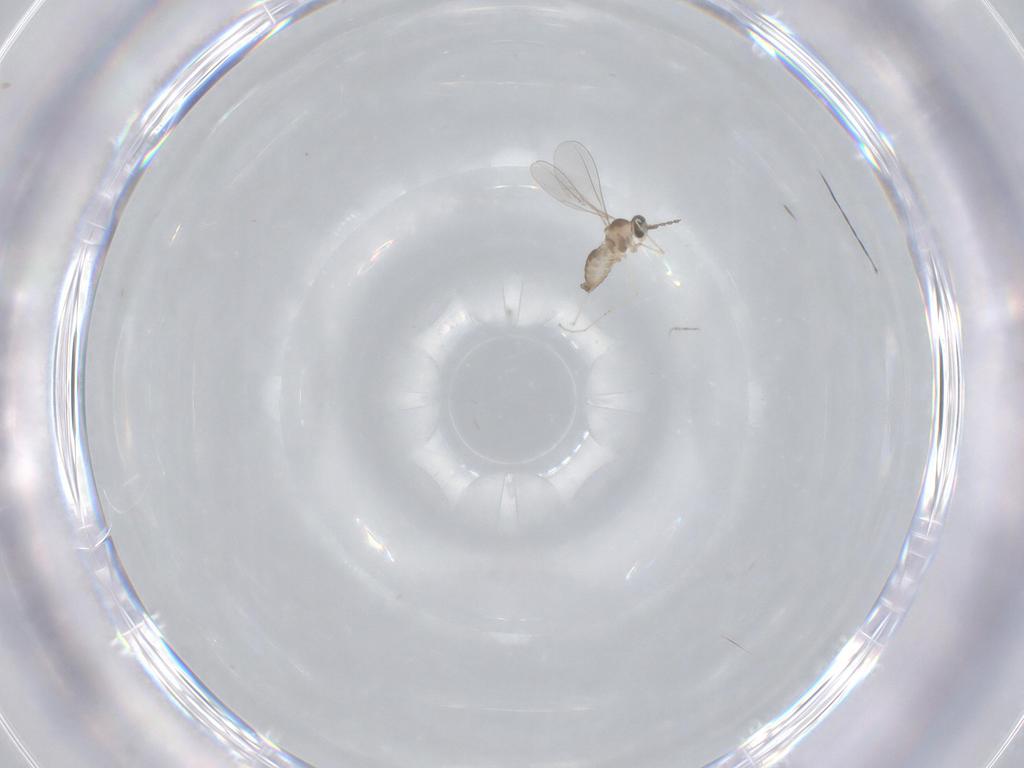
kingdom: Animalia
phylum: Arthropoda
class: Insecta
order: Diptera
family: Cecidomyiidae
